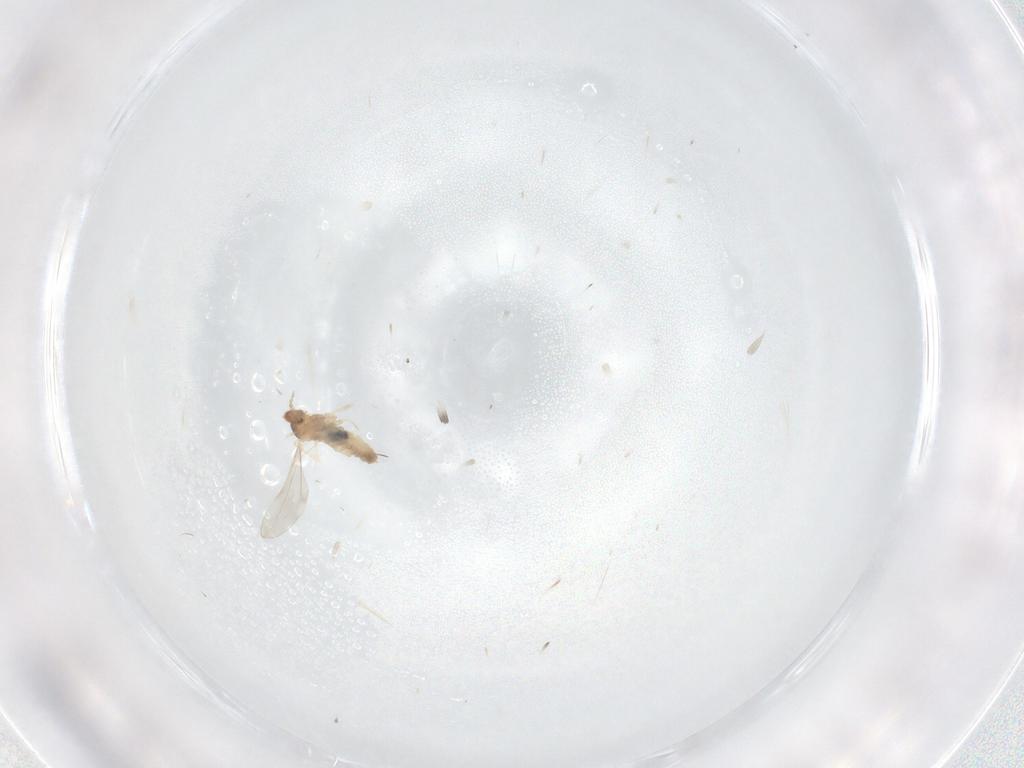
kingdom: Animalia
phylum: Arthropoda
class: Insecta
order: Diptera
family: Cecidomyiidae
